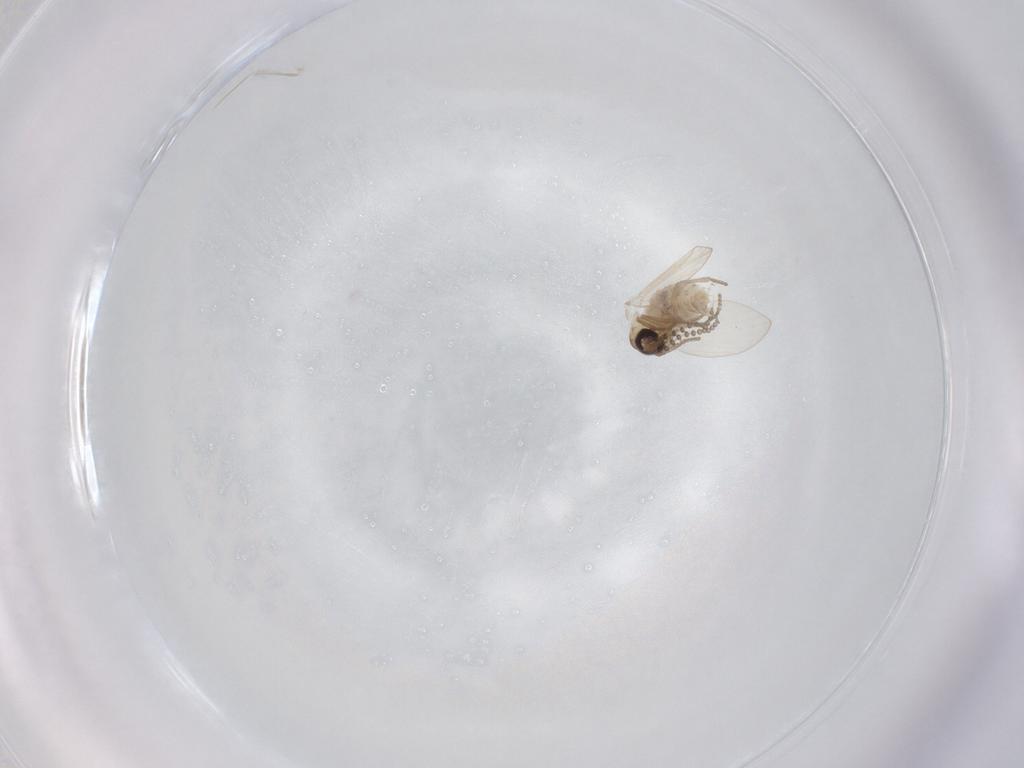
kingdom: Animalia
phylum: Arthropoda
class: Insecta
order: Diptera
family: Psychodidae
